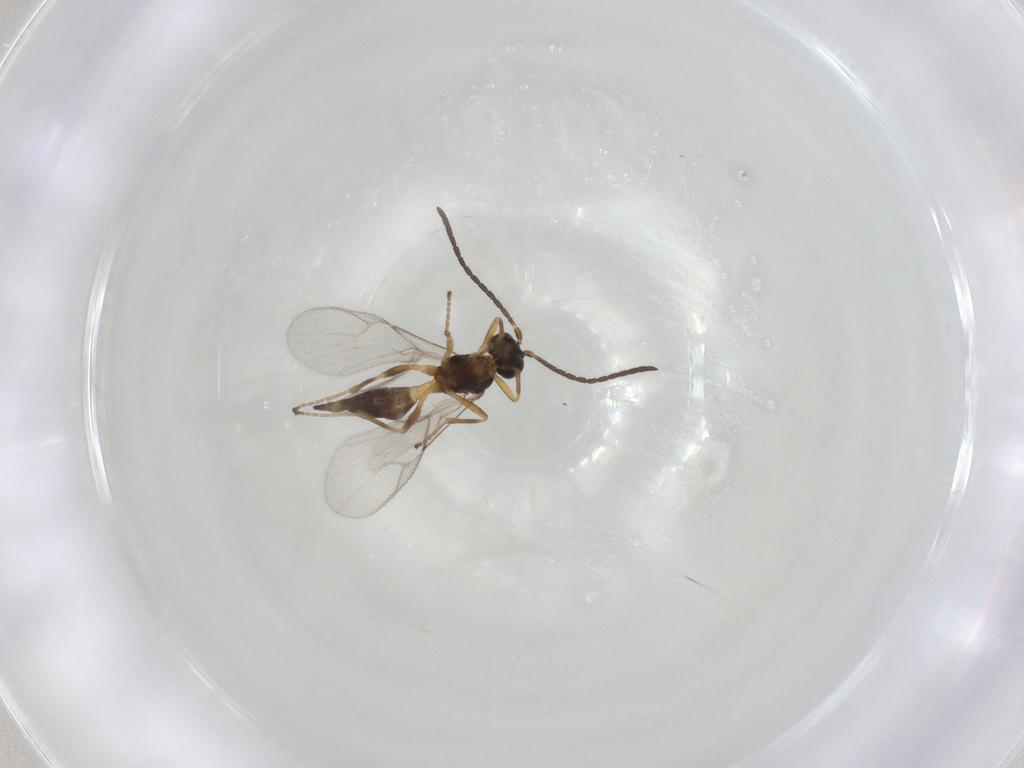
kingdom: Animalia
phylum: Arthropoda
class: Insecta
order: Hymenoptera
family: Braconidae
